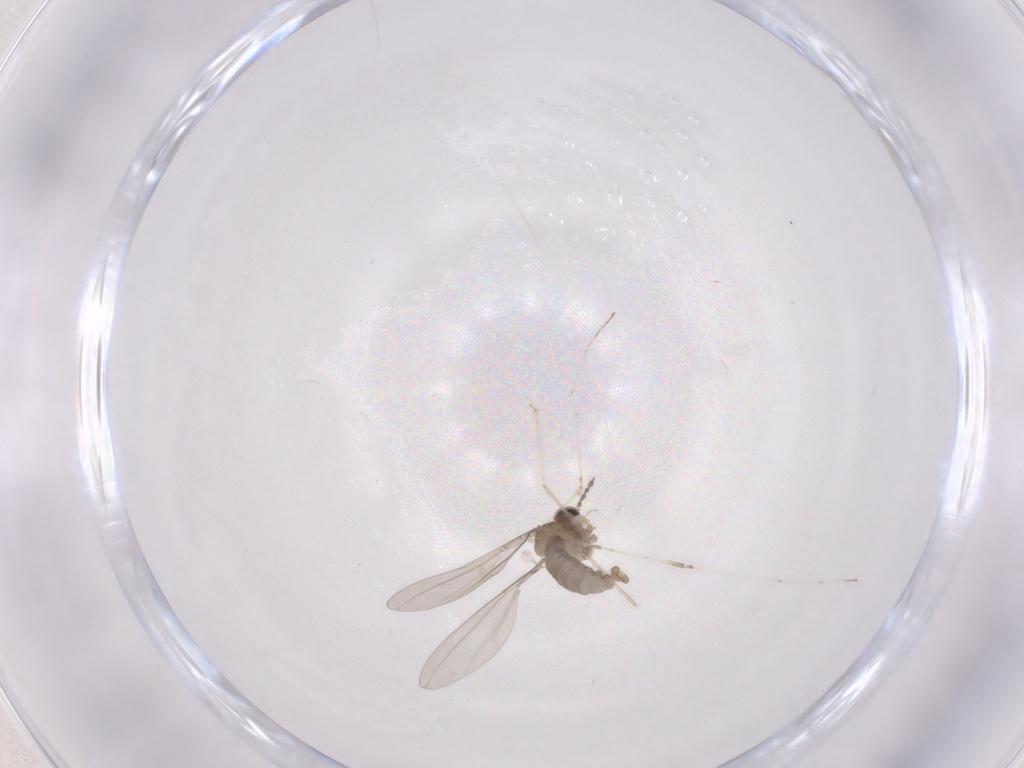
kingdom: Animalia
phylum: Arthropoda
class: Insecta
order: Diptera
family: Cecidomyiidae
